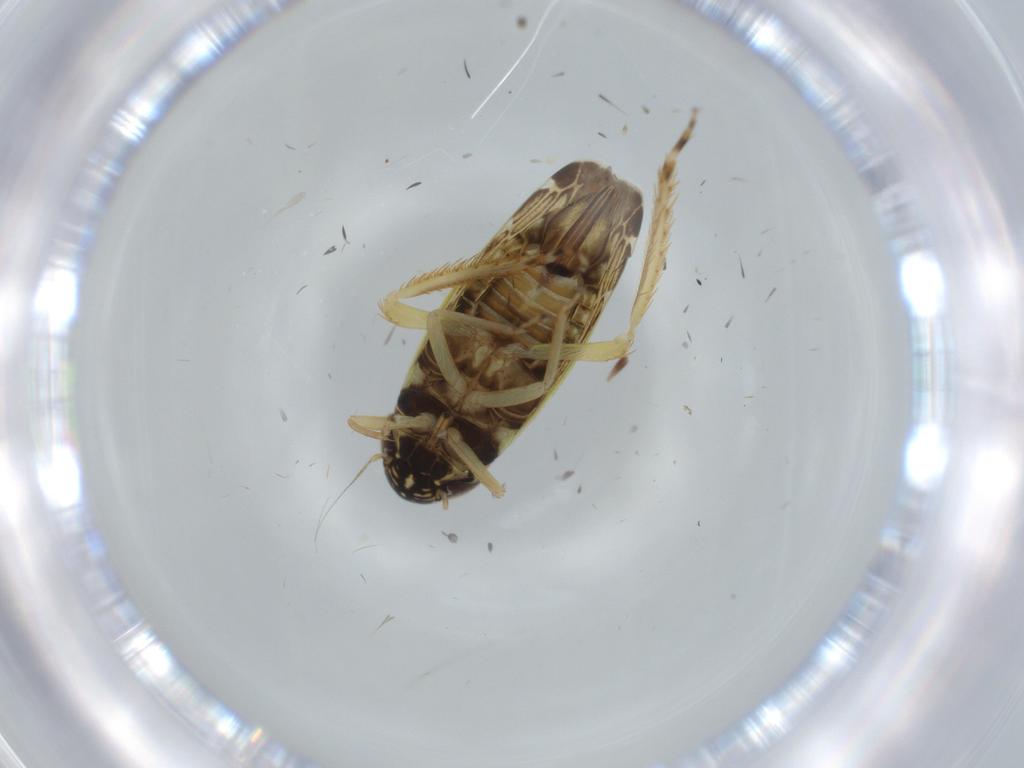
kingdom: Animalia
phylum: Arthropoda
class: Insecta
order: Hemiptera
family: Cicadellidae
